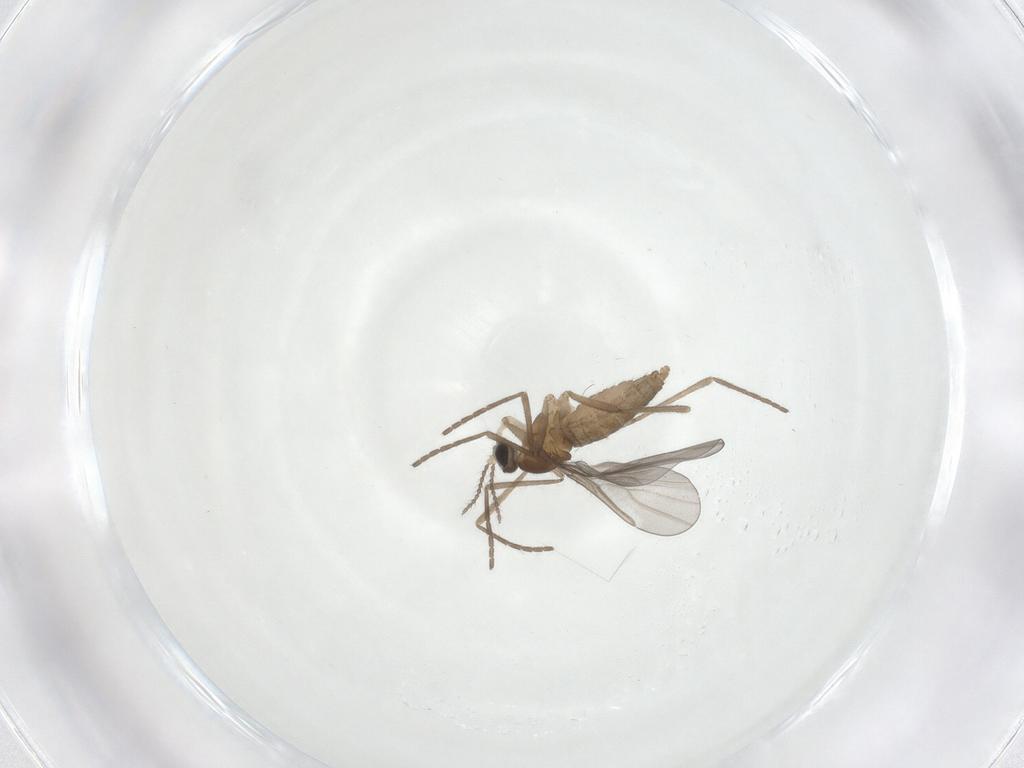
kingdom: Animalia
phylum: Arthropoda
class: Insecta
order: Diptera
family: Cecidomyiidae
